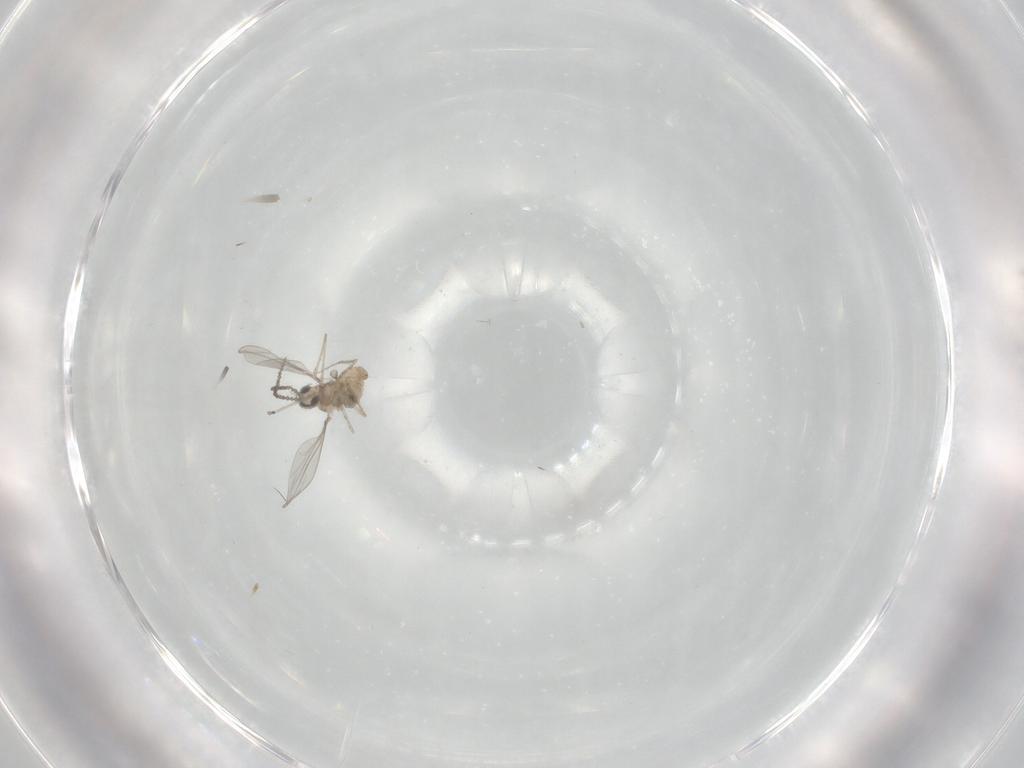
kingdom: Animalia
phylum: Arthropoda
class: Insecta
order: Diptera
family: Cecidomyiidae
